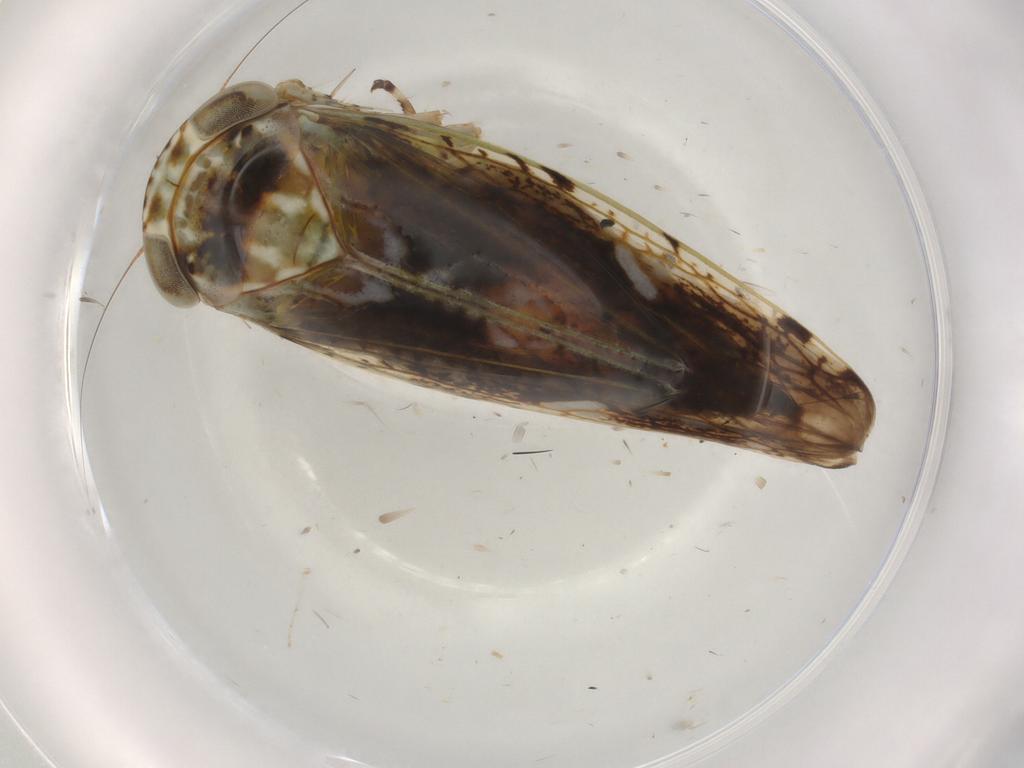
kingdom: Animalia
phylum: Arthropoda
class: Insecta
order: Hemiptera
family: Cicadellidae
